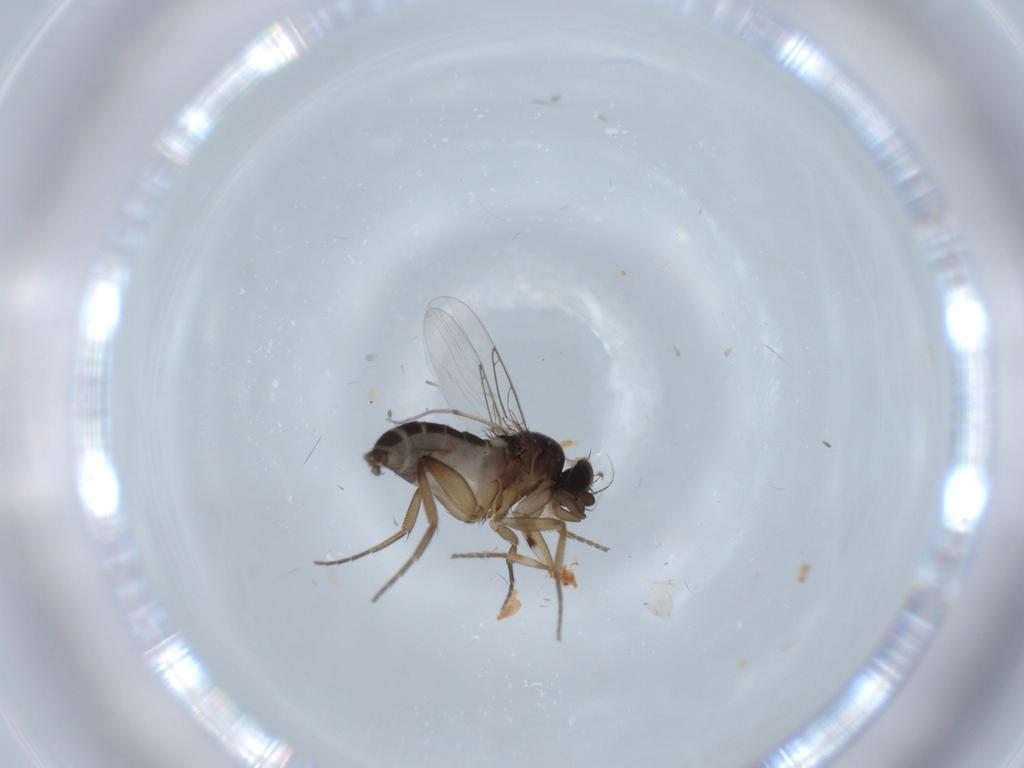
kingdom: Animalia
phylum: Arthropoda
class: Insecta
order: Diptera
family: Phoridae
